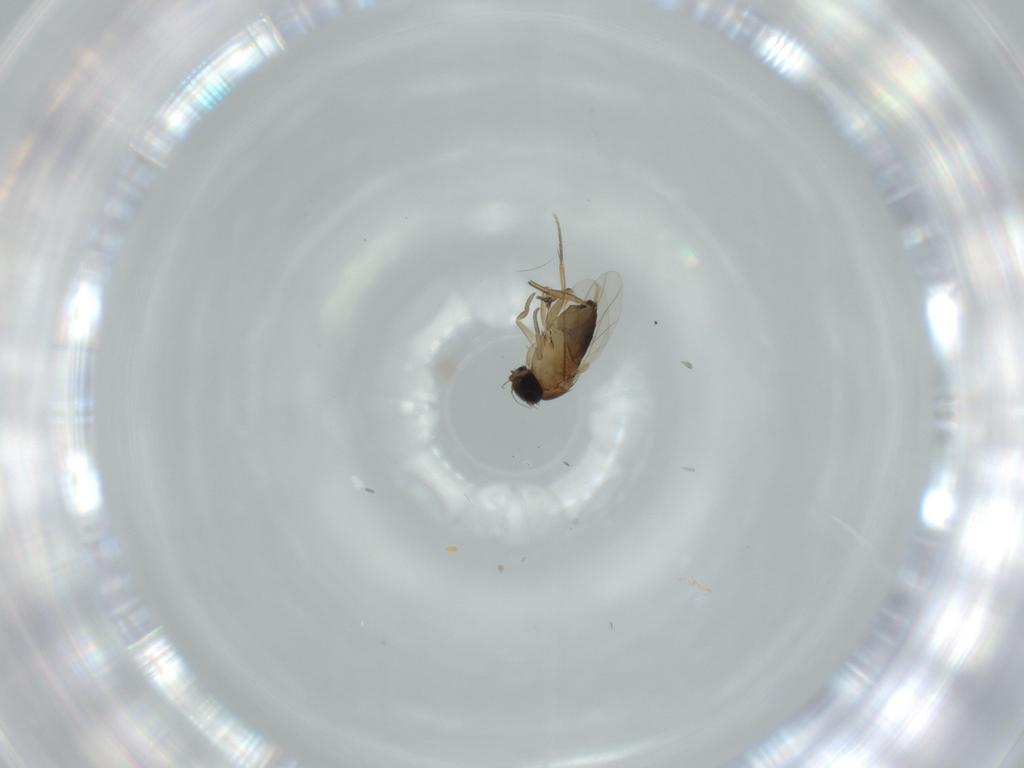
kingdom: Animalia
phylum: Arthropoda
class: Insecta
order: Diptera
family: Phoridae
